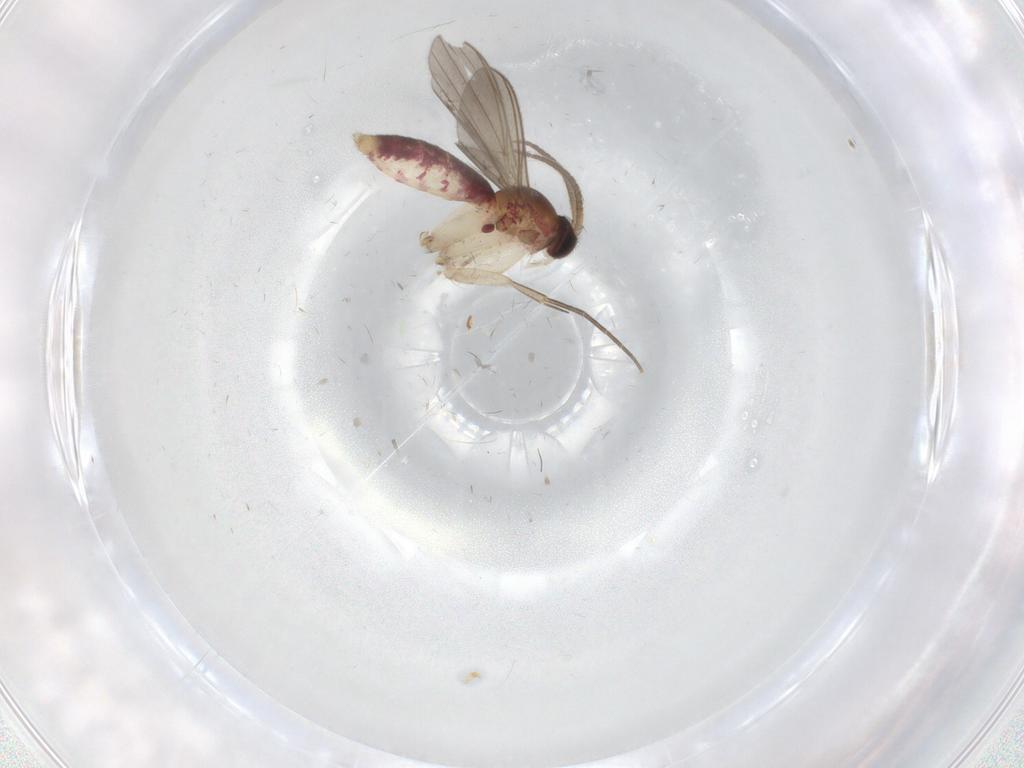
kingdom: Animalia
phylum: Arthropoda
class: Insecta
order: Diptera
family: Mycetophilidae
